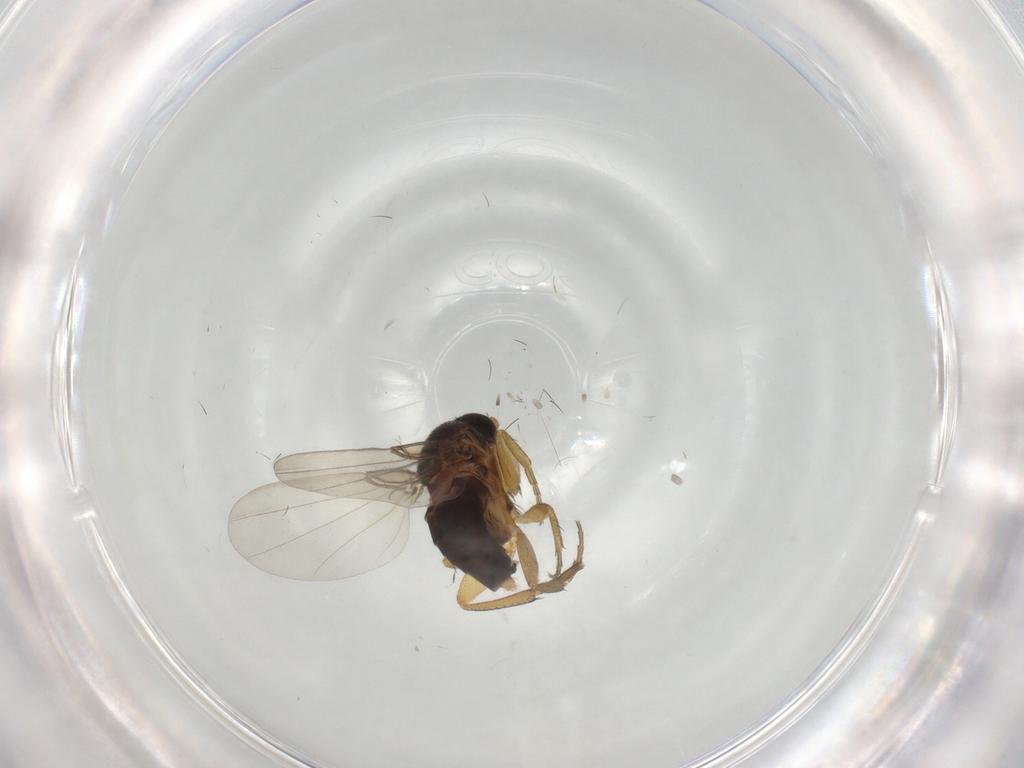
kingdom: Animalia
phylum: Arthropoda
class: Insecta
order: Diptera
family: Phoridae
